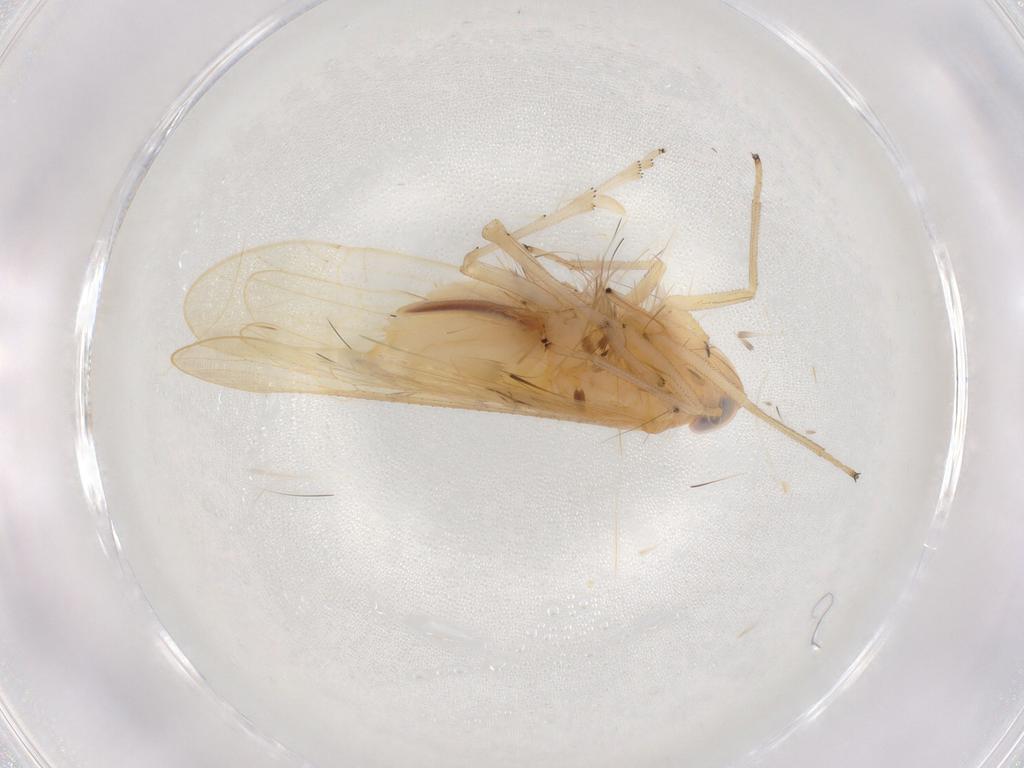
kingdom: Animalia
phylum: Arthropoda
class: Insecta
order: Hemiptera
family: Delphacidae
